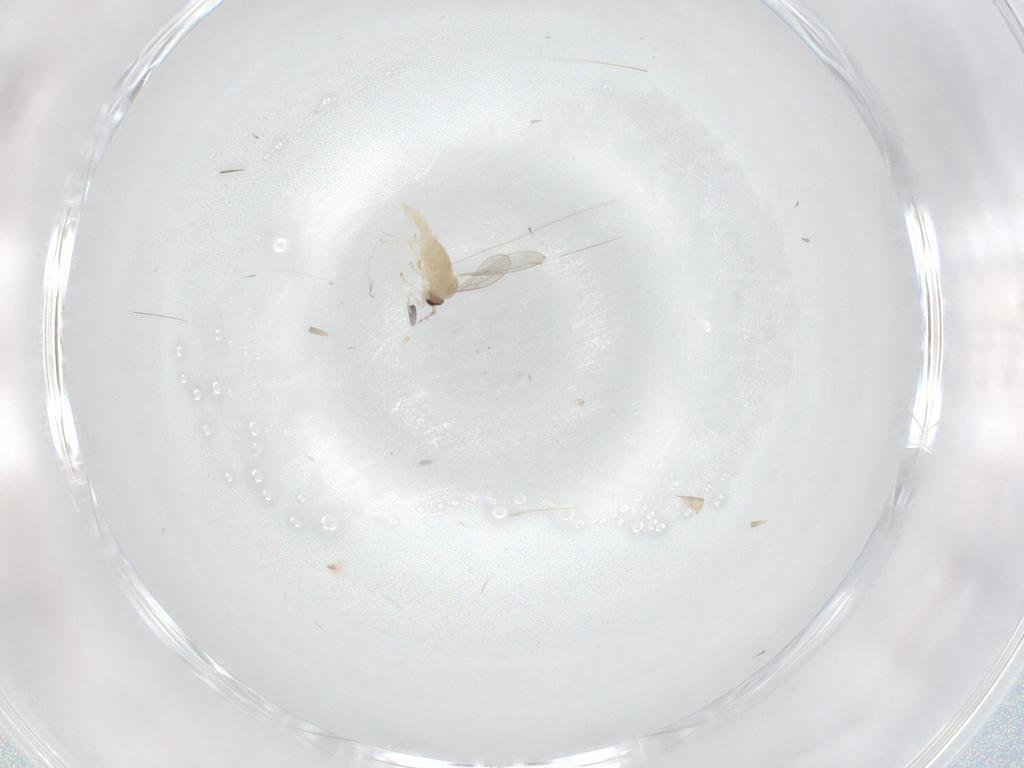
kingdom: Animalia
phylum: Arthropoda
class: Insecta
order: Diptera
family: Cecidomyiidae
